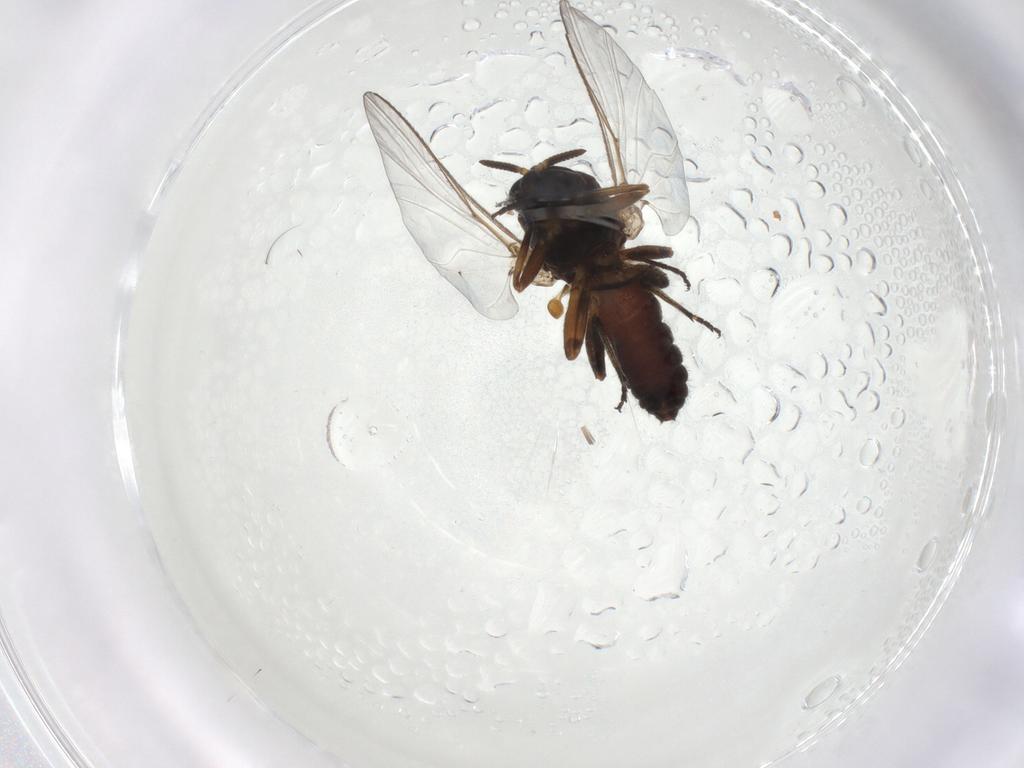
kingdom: Animalia
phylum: Arthropoda
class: Insecta
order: Diptera
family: Ceratopogonidae
